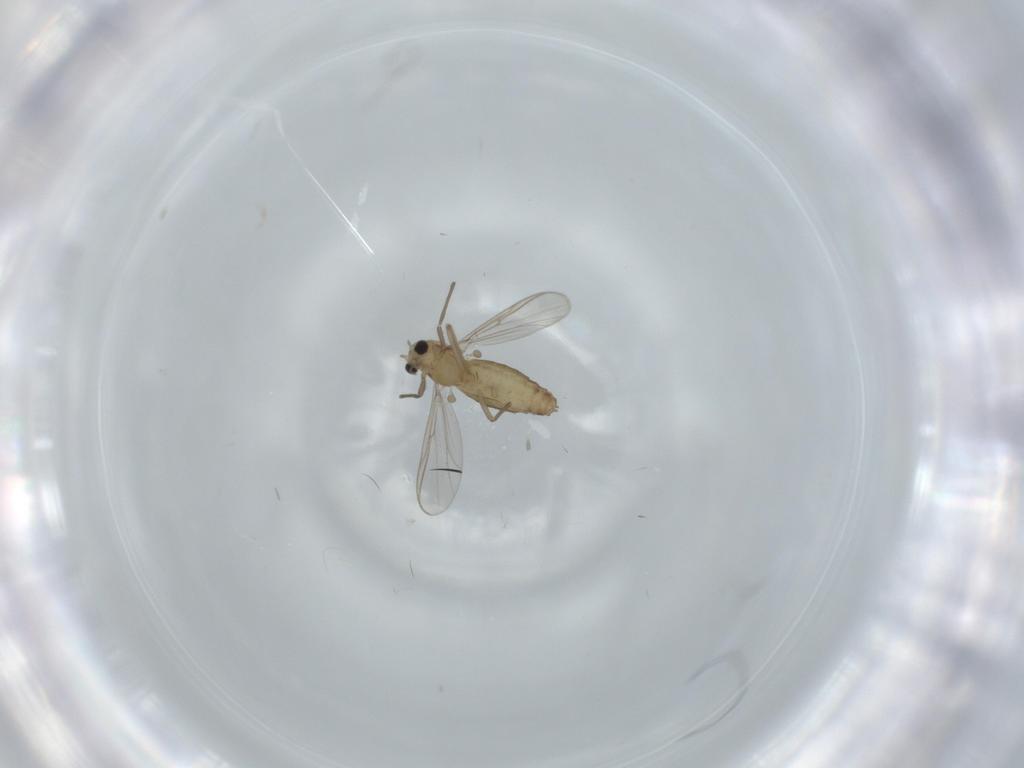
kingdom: Animalia
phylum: Arthropoda
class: Insecta
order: Diptera
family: Chironomidae
